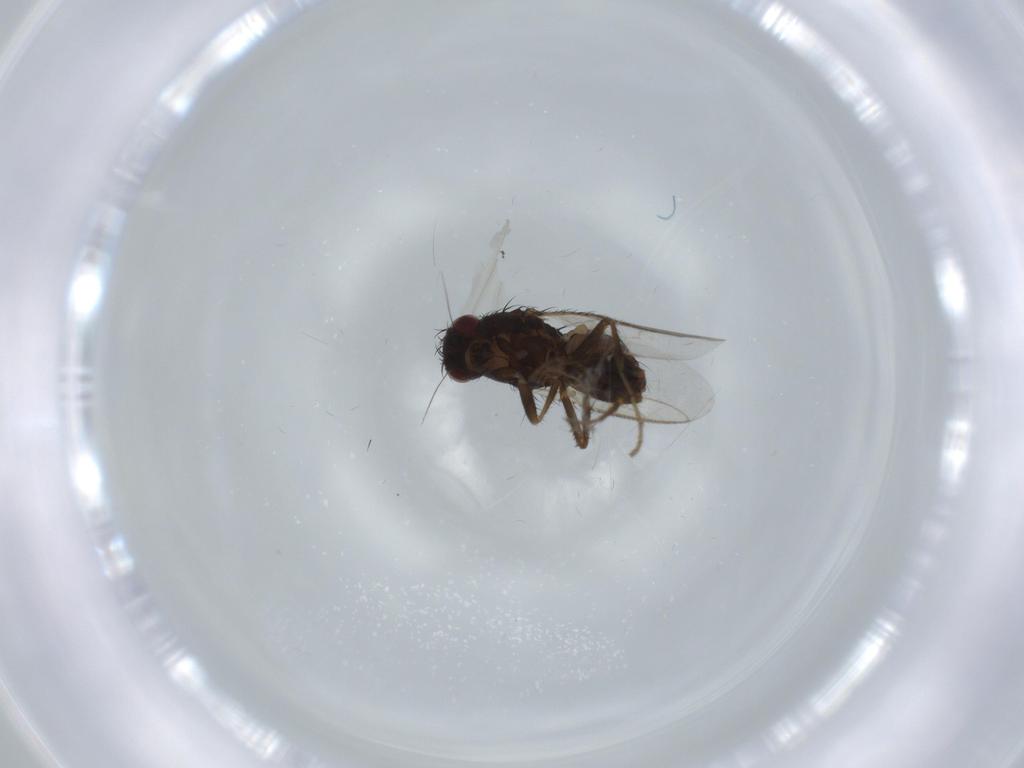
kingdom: Animalia
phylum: Arthropoda
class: Insecta
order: Diptera
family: Sphaeroceridae
